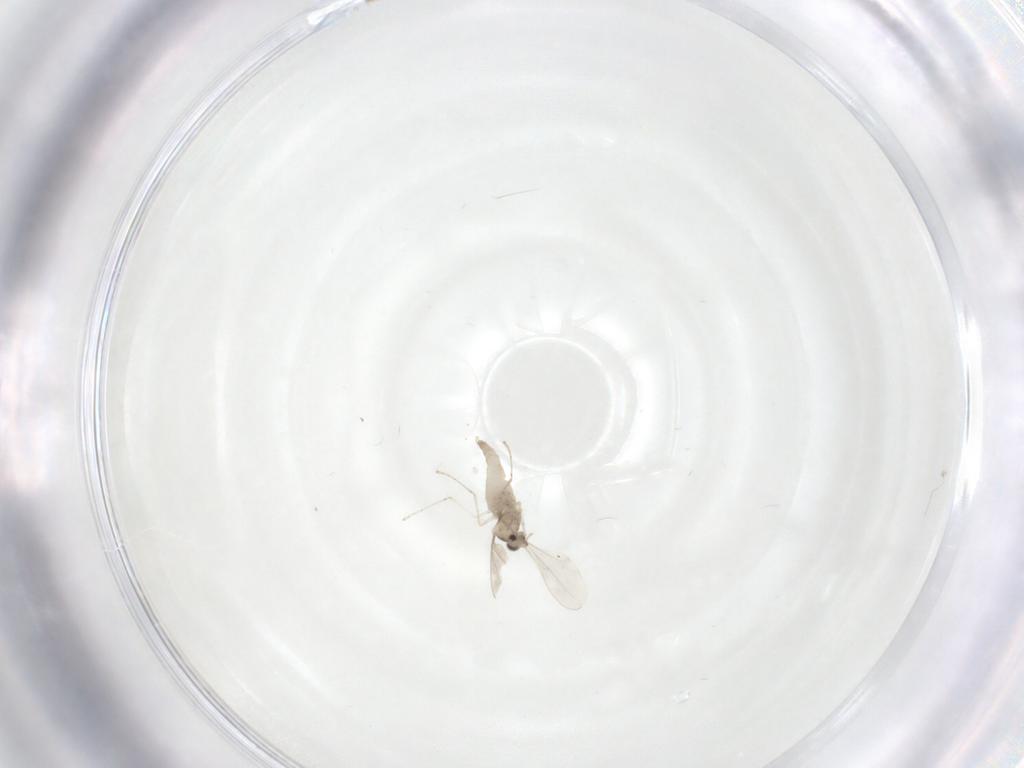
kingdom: Animalia
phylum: Arthropoda
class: Insecta
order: Diptera
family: Cecidomyiidae
